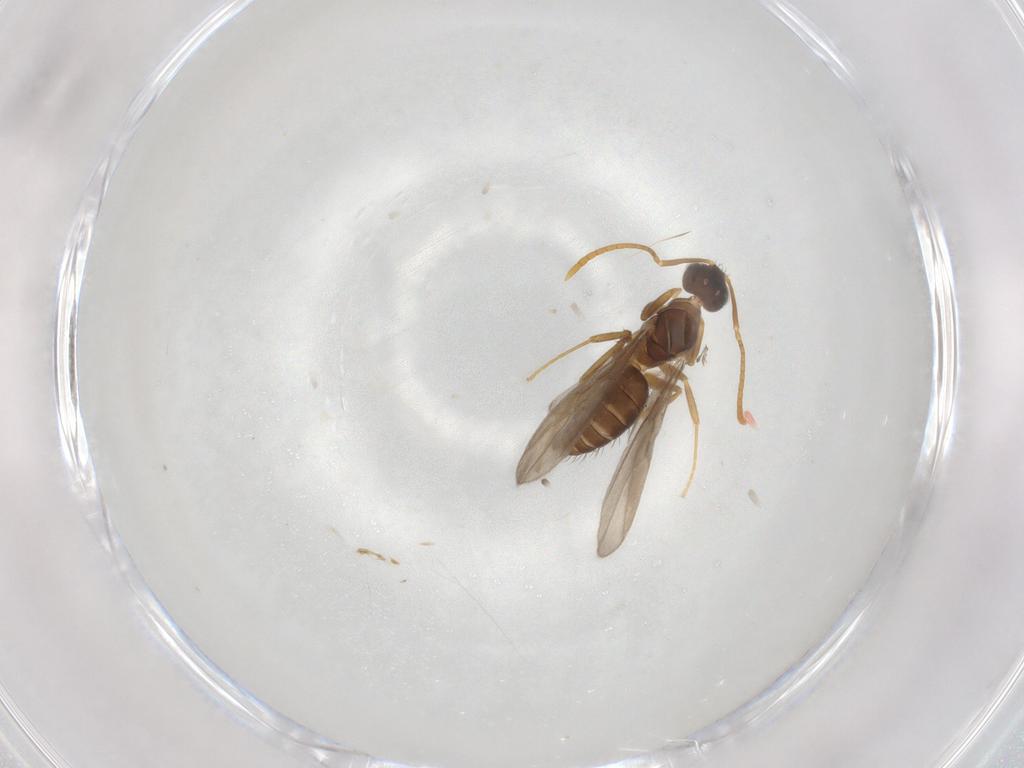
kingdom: Animalia
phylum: Arthropoda
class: Insecta
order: Hymenoptera
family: Formicidae
